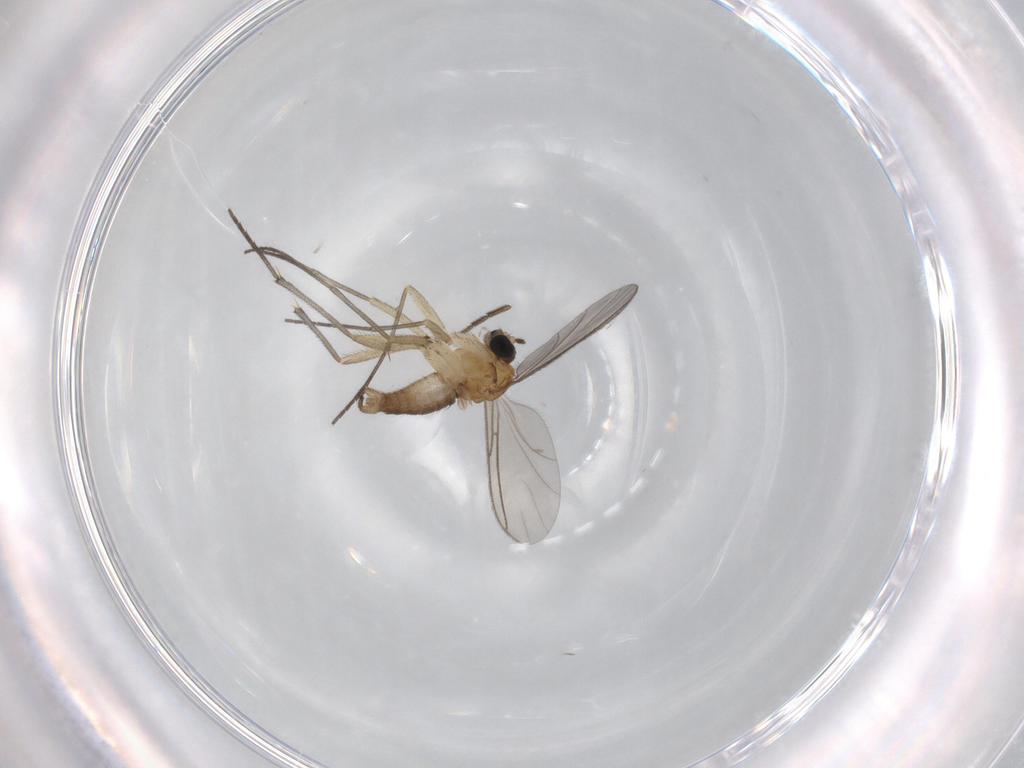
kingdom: Animalia
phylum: Arthropoda
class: Insecta
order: Diptera
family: Sciaridae
